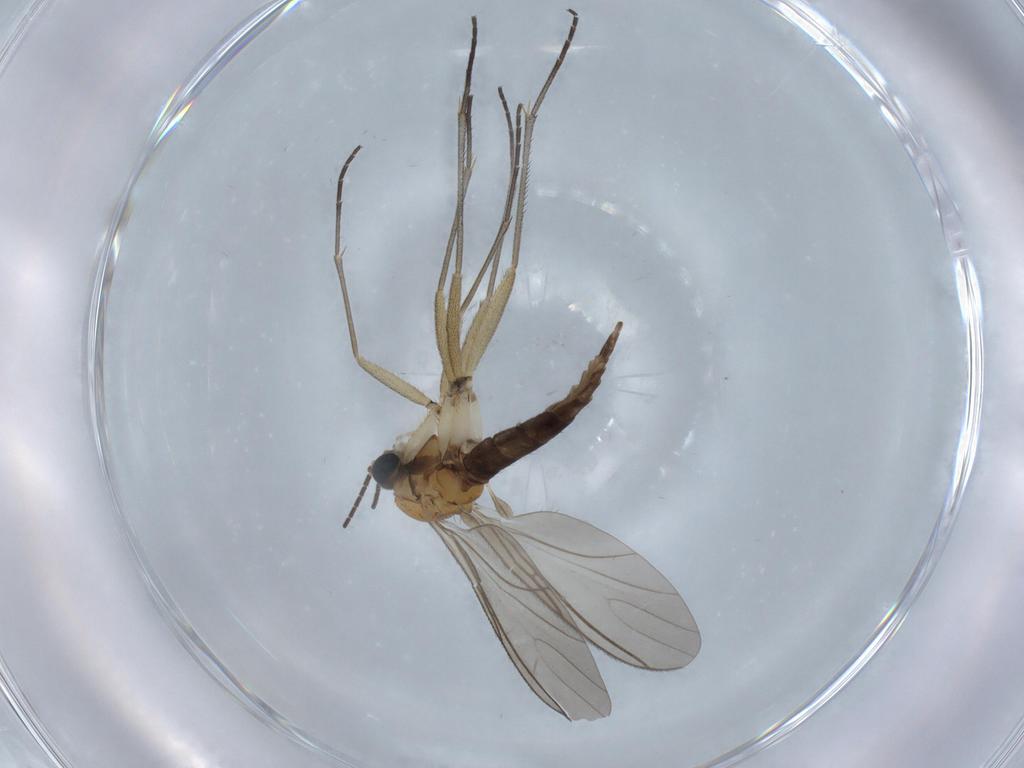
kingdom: Animalia
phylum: Arthropoda
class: Insecta
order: Diptera
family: Sciaridae
